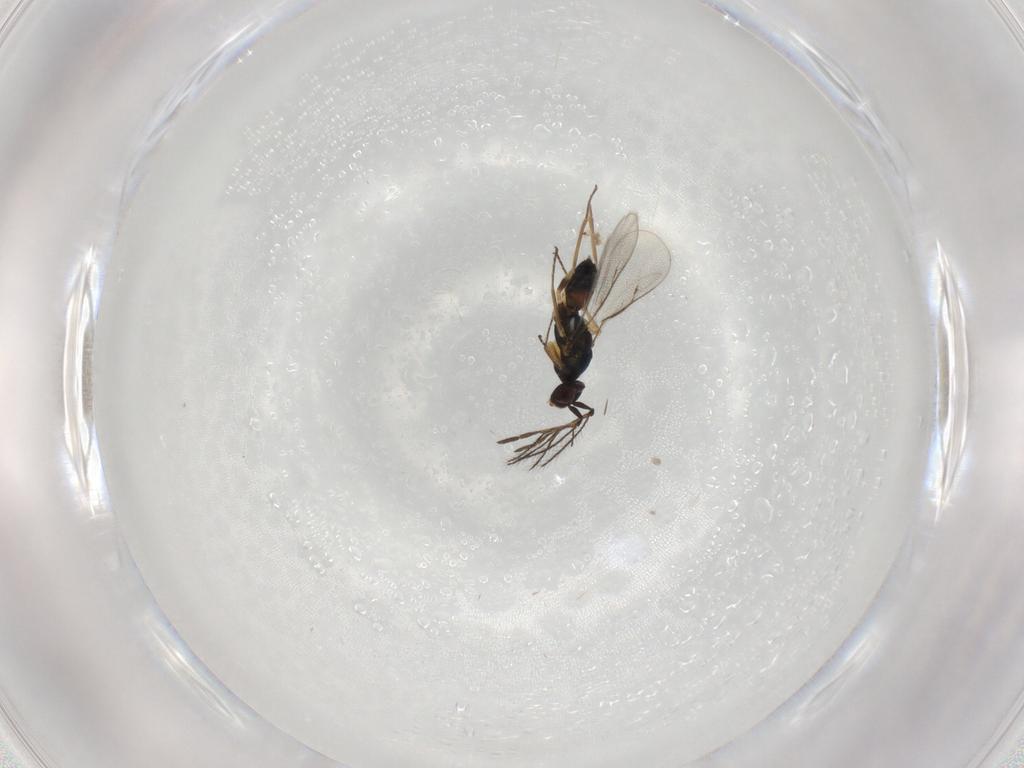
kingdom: Animalia
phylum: Arthropoda
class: Insecta
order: Hymenoptera
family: Eulophidae
